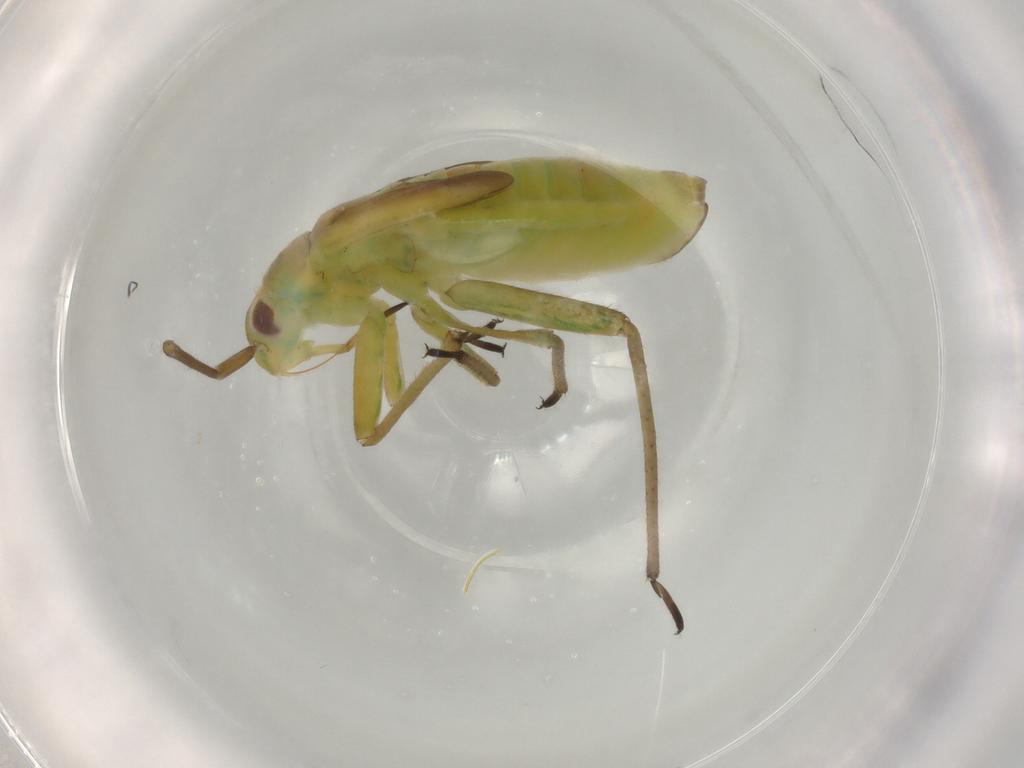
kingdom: Animalia
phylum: Arthropoda
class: Insecta
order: Hemiptera
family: Miridae
